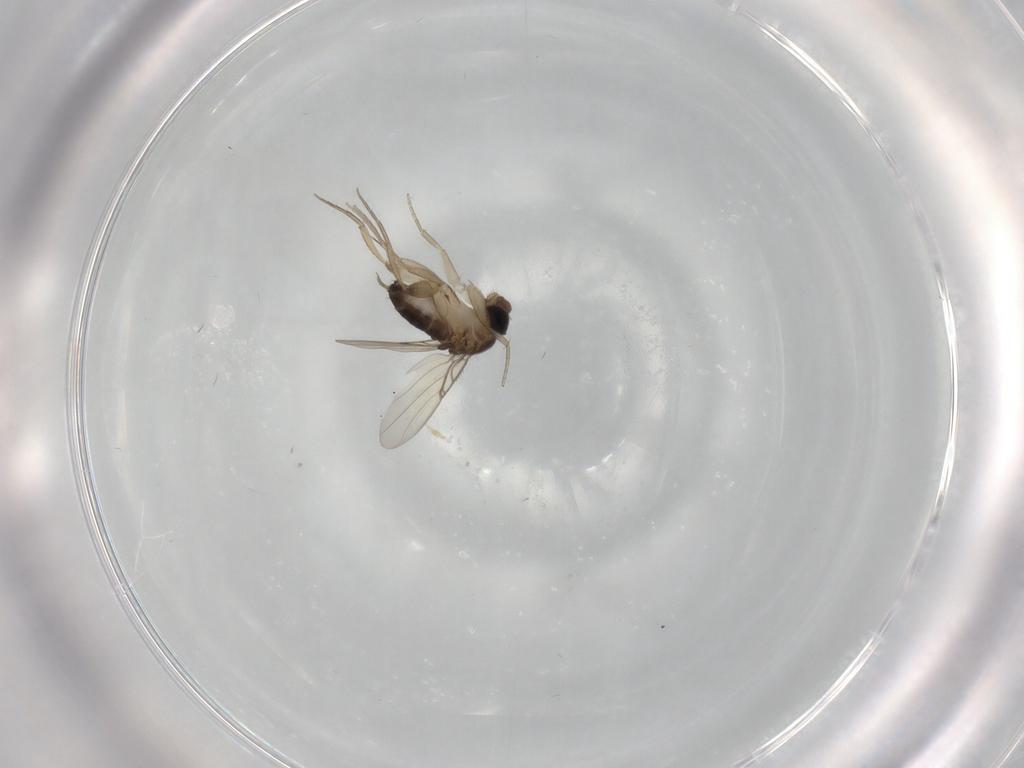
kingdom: Animalia
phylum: Arthropoda
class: Insecta
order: Diptera
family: Phoridae
